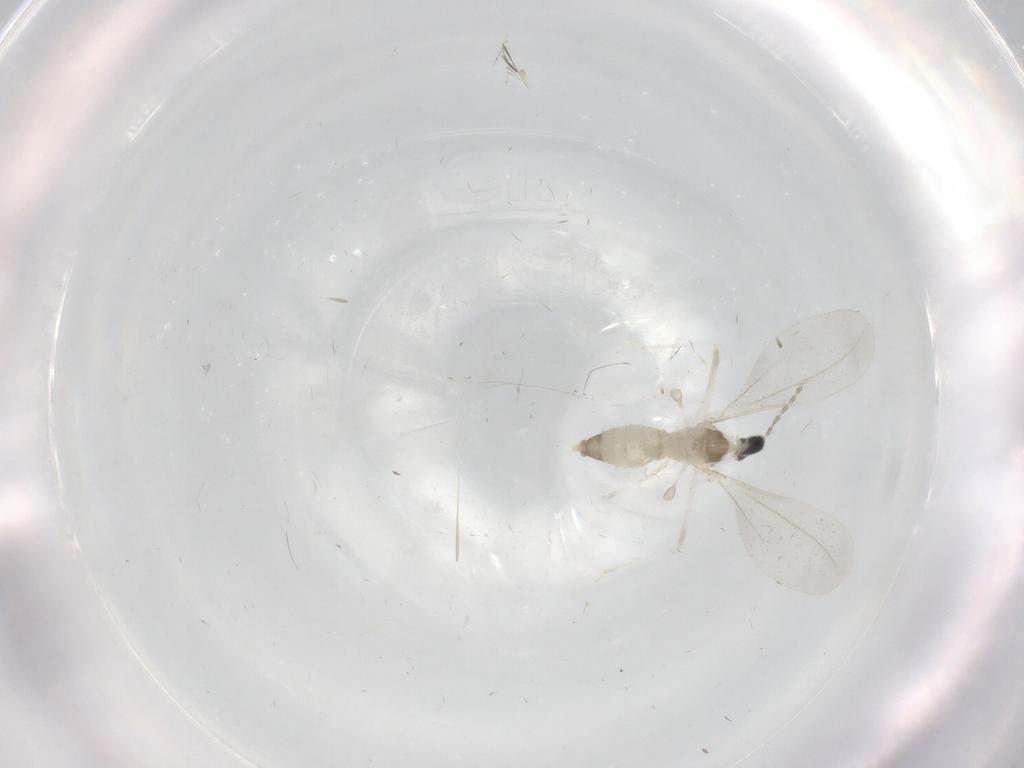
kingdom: Animalia
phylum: Arthropoda
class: Insecta
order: Diptera
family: Cecidomyiidae
